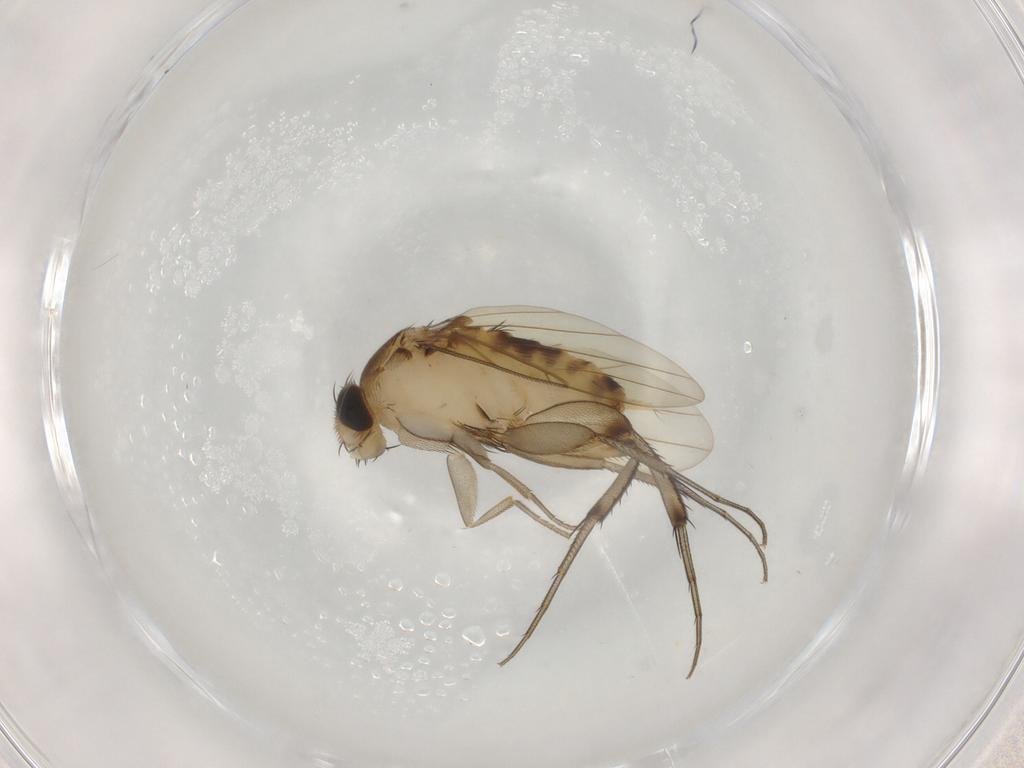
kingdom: Animalia
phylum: Arthropoda
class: Insecta
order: Diptera
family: Phoridae
